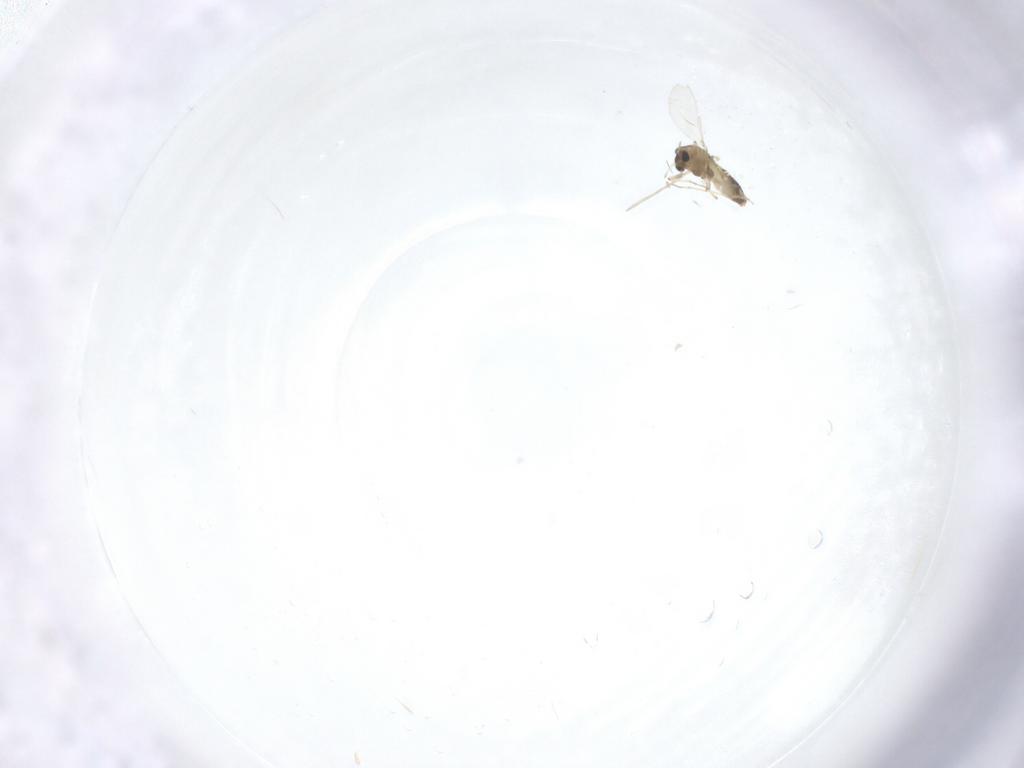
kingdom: Animalia
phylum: Arthropoda
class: Insecta
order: Diptera
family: Chironomidae
